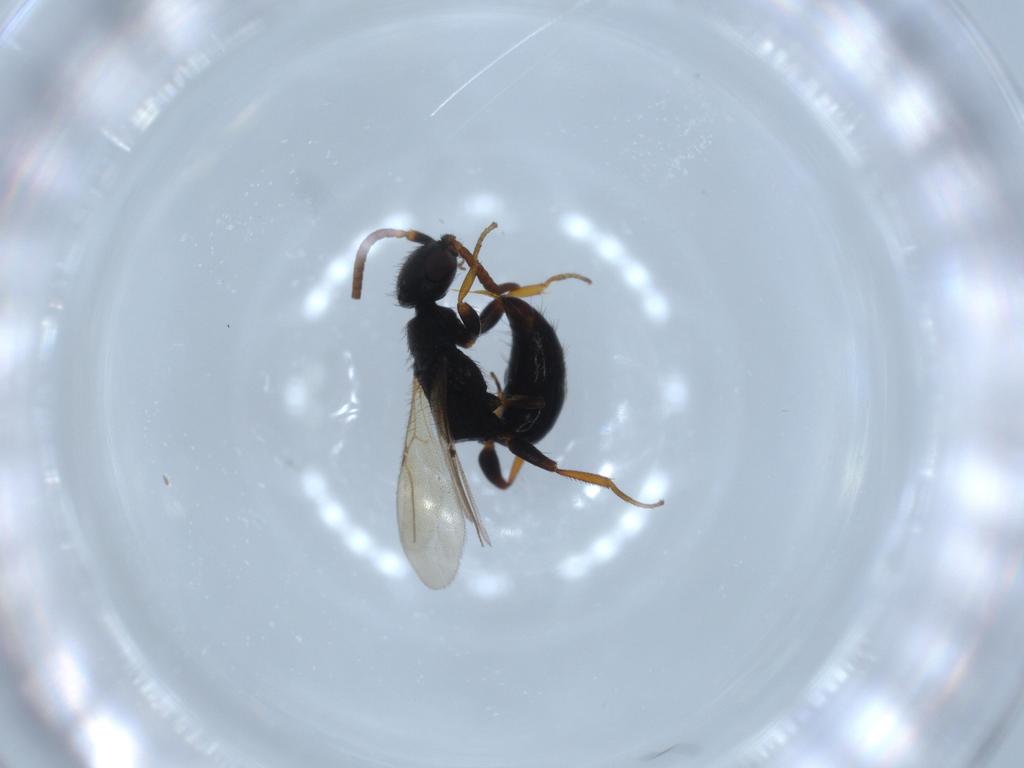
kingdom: Animalia
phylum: Arthropoda
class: Insecta
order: Hymenoptera
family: Bethylidae
